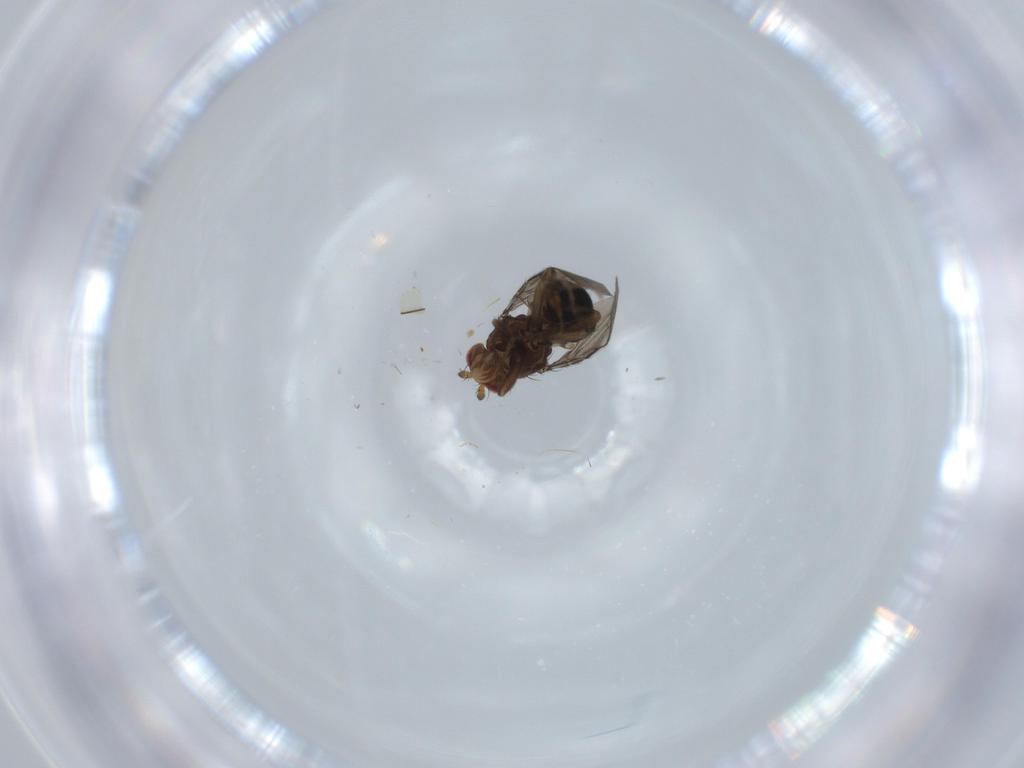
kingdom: Animalia
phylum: Arthropoda
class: Insecta
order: Diptera
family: Hybotidae
